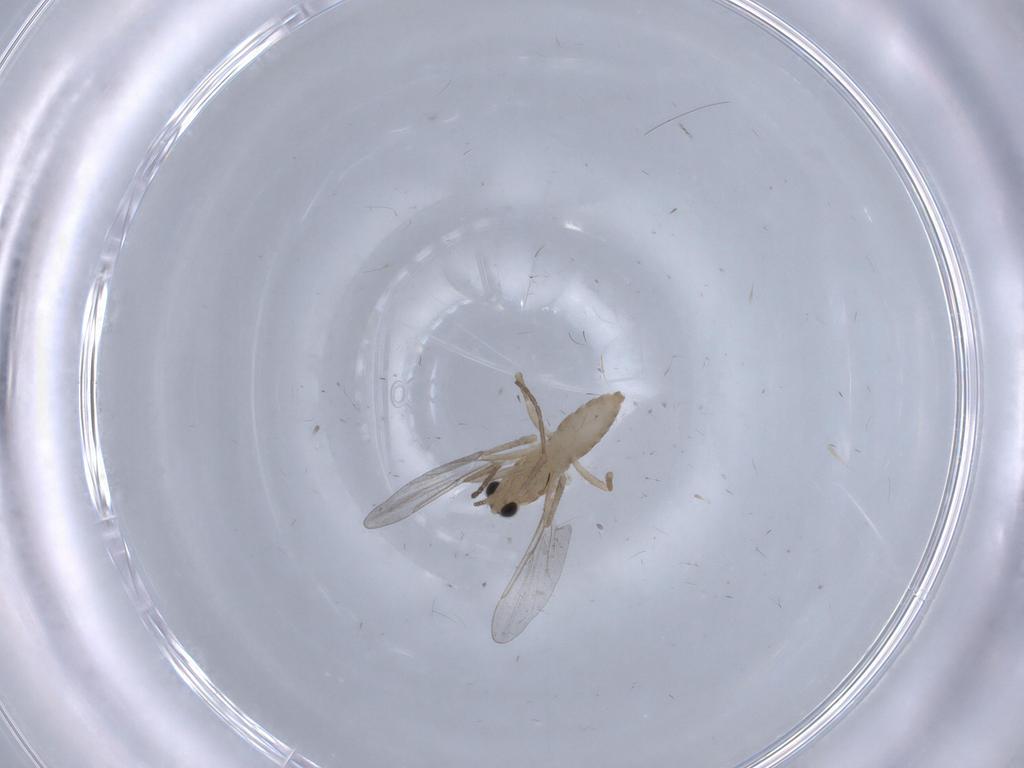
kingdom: Animalia
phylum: Arthropoda
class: Insecta
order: Diptera
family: Cecidomyiidae
